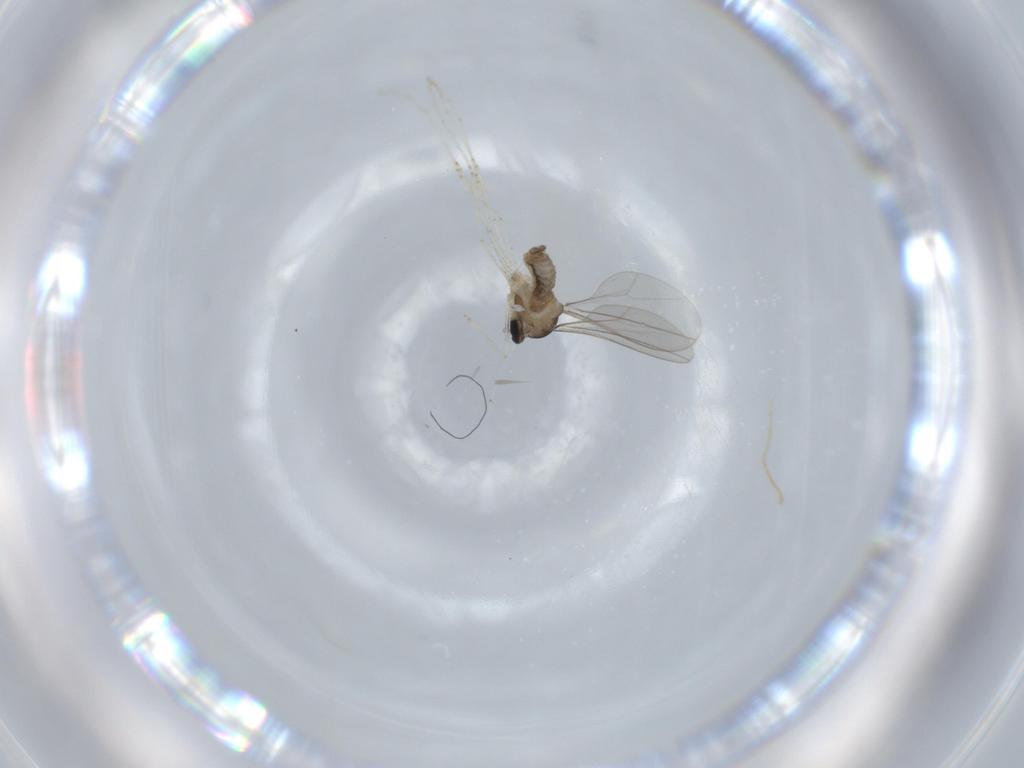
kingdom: Animalia
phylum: Arthropoda
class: Insecta
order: Diptera
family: Cecidomyiidae
